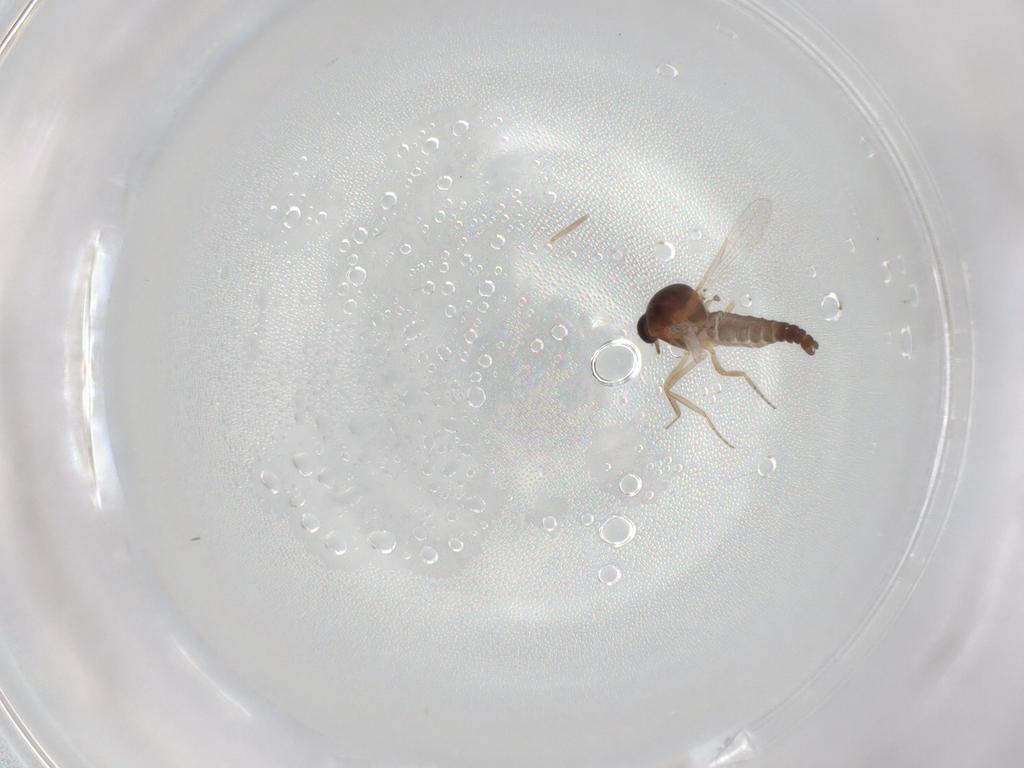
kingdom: Animalia
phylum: Arthropoda
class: Insecta
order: Diptera
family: Ceratopogonidae
